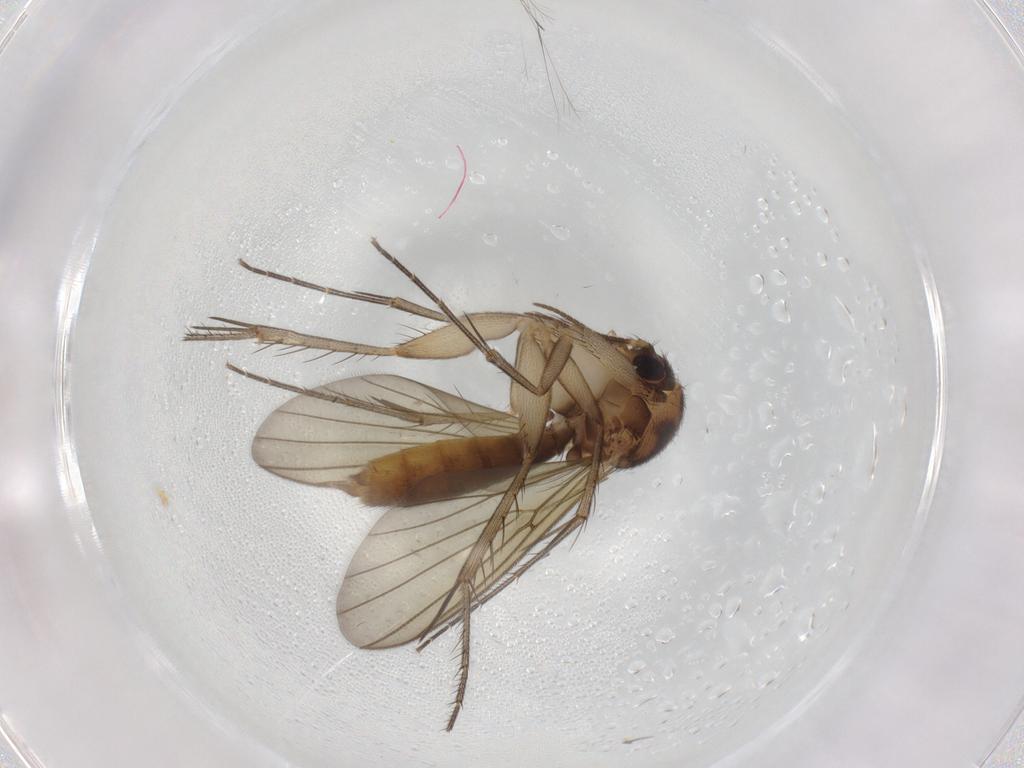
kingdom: Animalia
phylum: Arthropoda
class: Insecta
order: Diptera
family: Mycetophilidae
